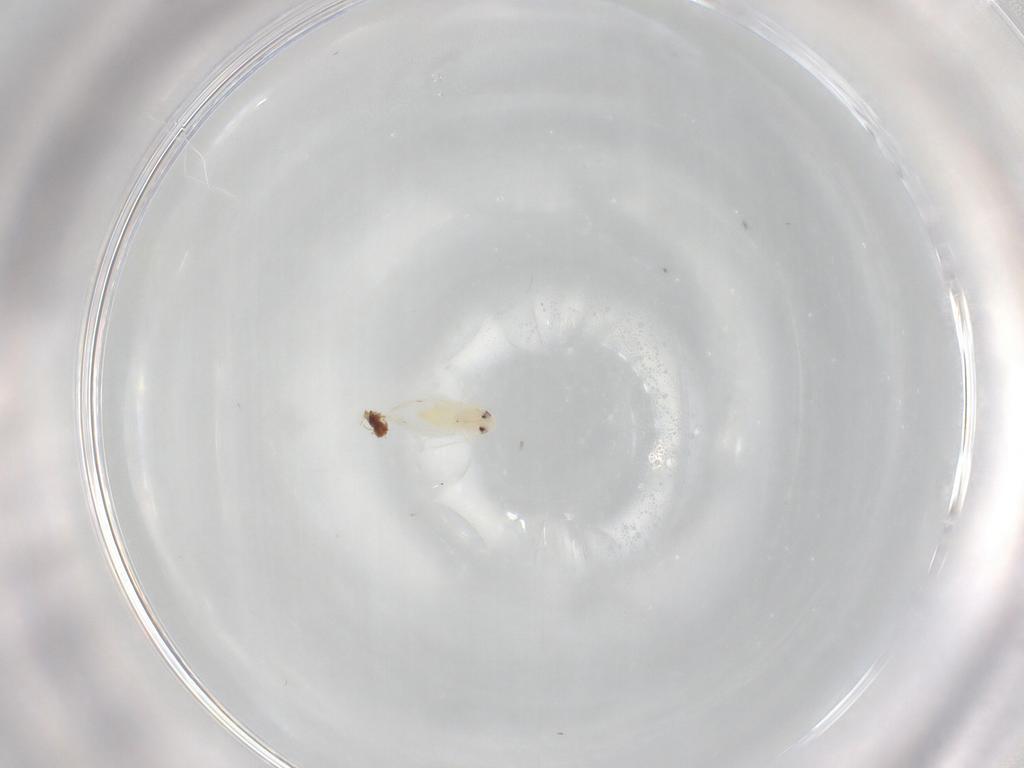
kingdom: Animalia
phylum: Arthropoda
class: Insecta
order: Hemiptera
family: Aleyrodidae
